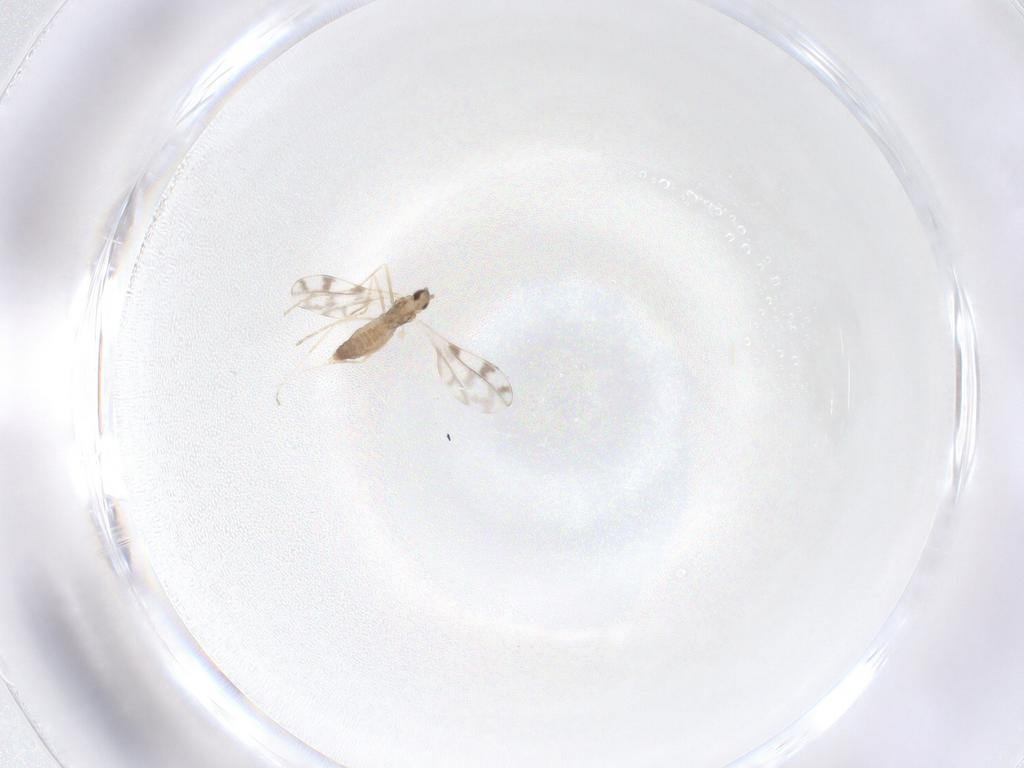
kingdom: Animalia
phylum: Arthropoda
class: Insecta
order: Diptera
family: Cecidomyiidae
